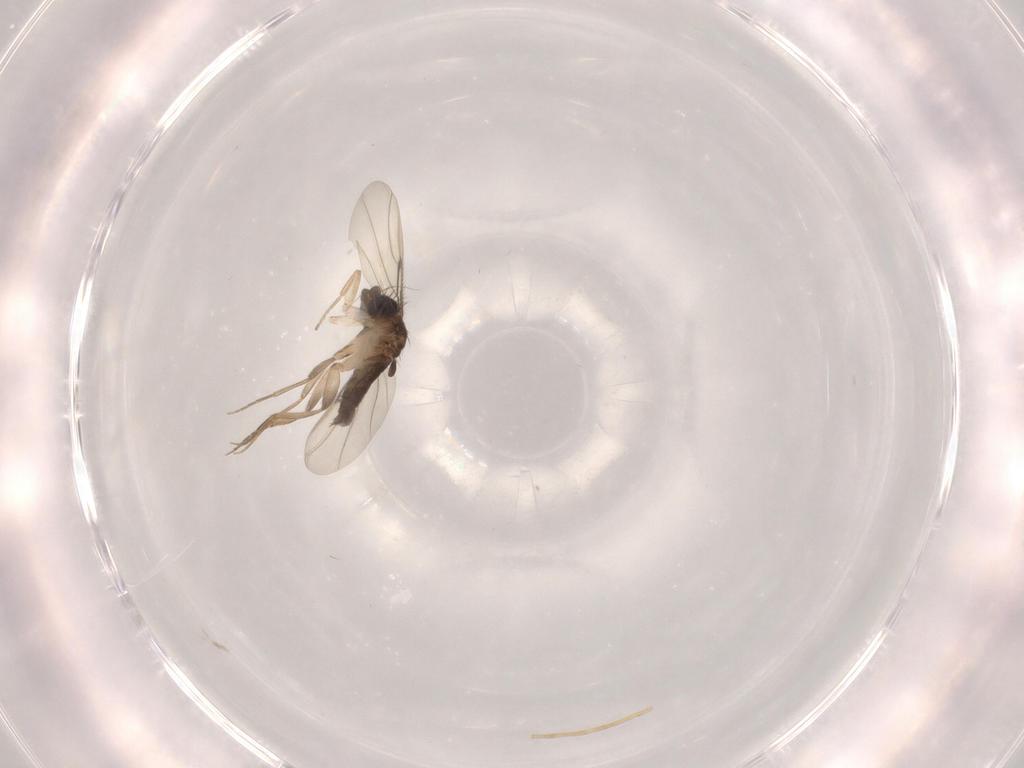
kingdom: Animalia
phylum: Arthropoda
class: Insecta
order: Diptera
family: Phoridae
